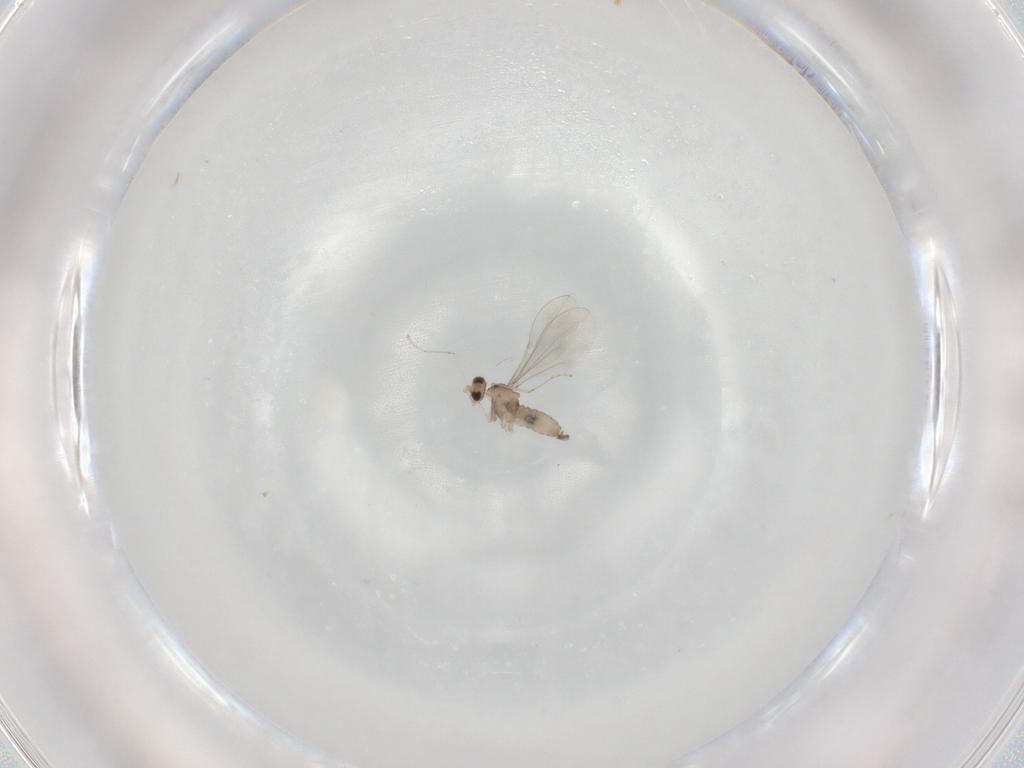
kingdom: Animalia
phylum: Arthropoda
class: Insecta
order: Diptera
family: Cecidomyiidae
